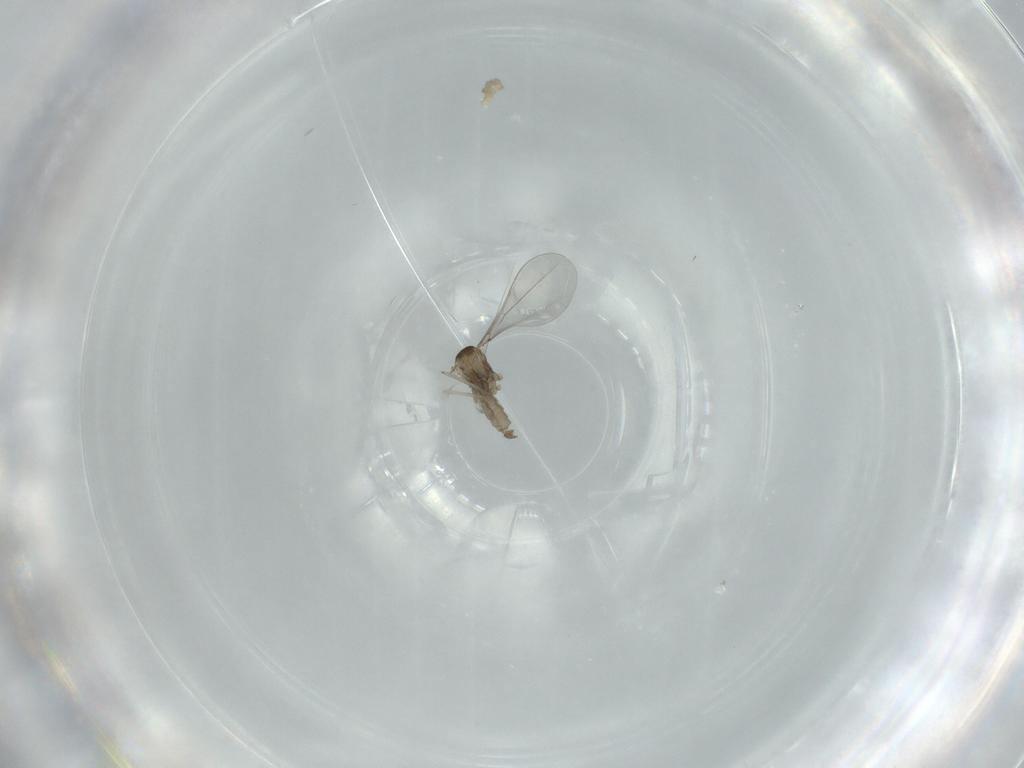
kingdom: Animalia
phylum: Arthropoda
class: Insecta
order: Diptera
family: Cecidomyiidae
